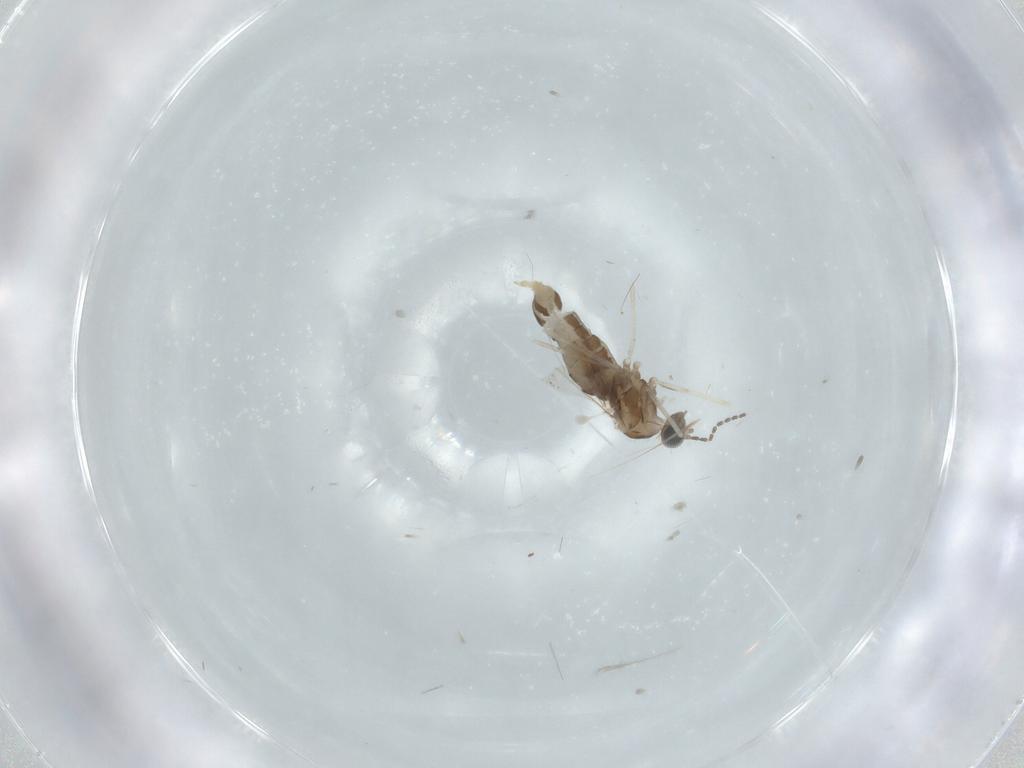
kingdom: Animalia
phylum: Arthropoda
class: Insecta
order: Diptera
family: Cecidomyiidae
